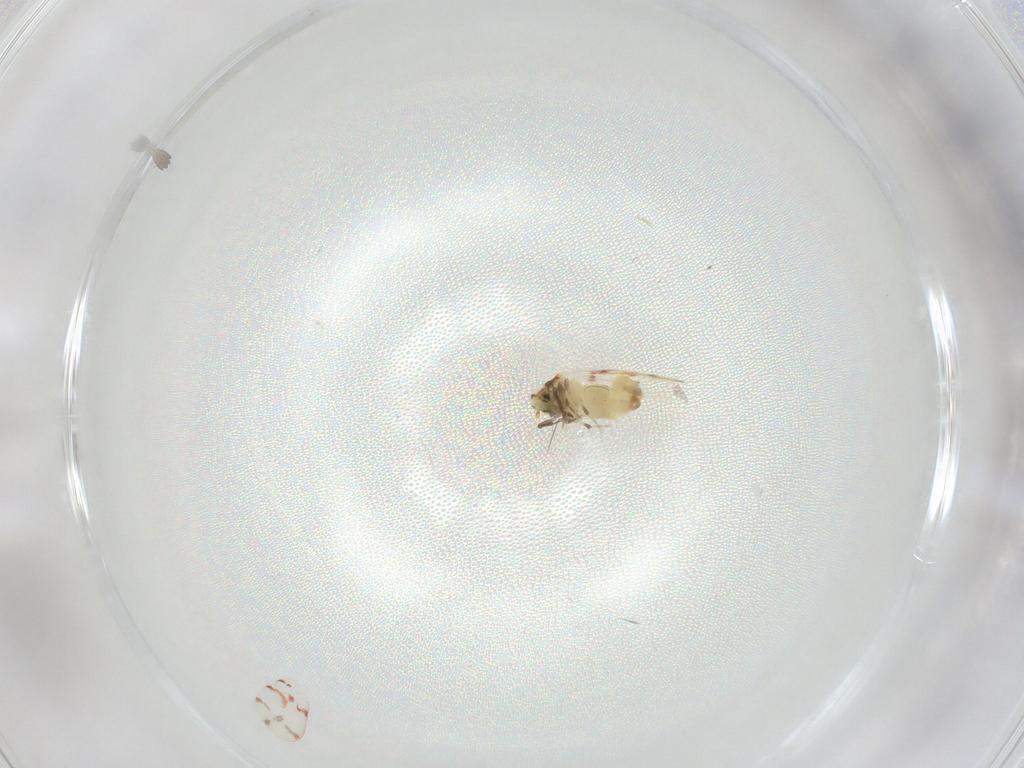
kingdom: Animalia
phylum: Arthropoda
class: Insecta
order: Hemiptera
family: Aleyrodidae
